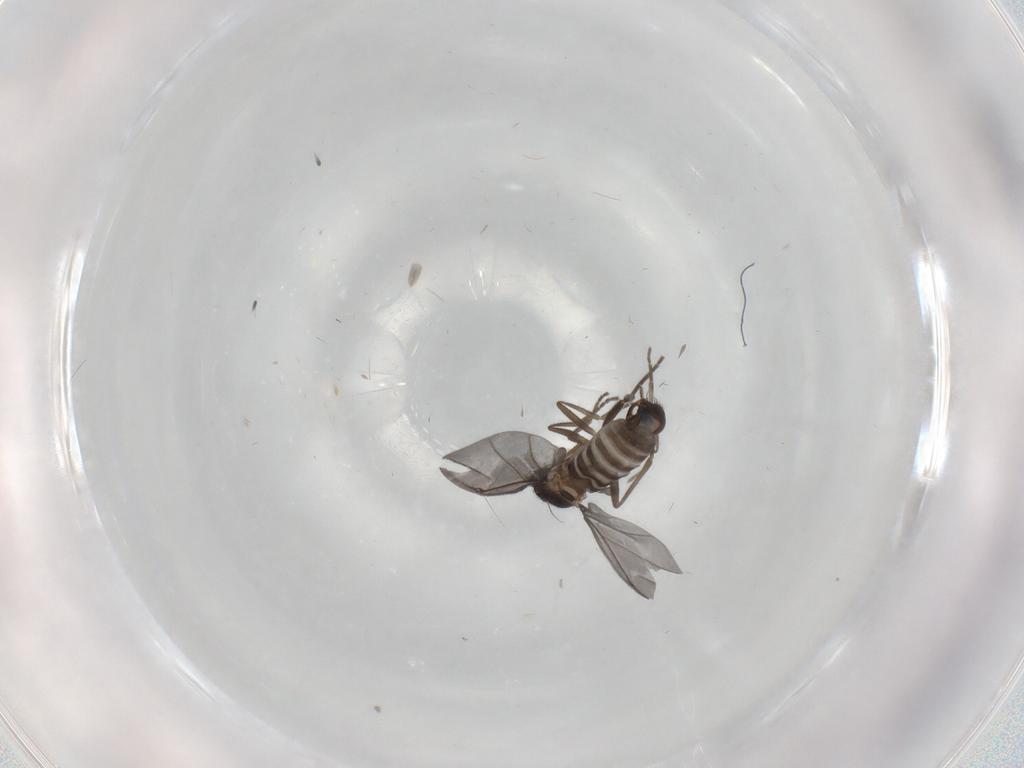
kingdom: Animalia
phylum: Arthropoda
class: Insecta
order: Diptera
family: Phoridae
